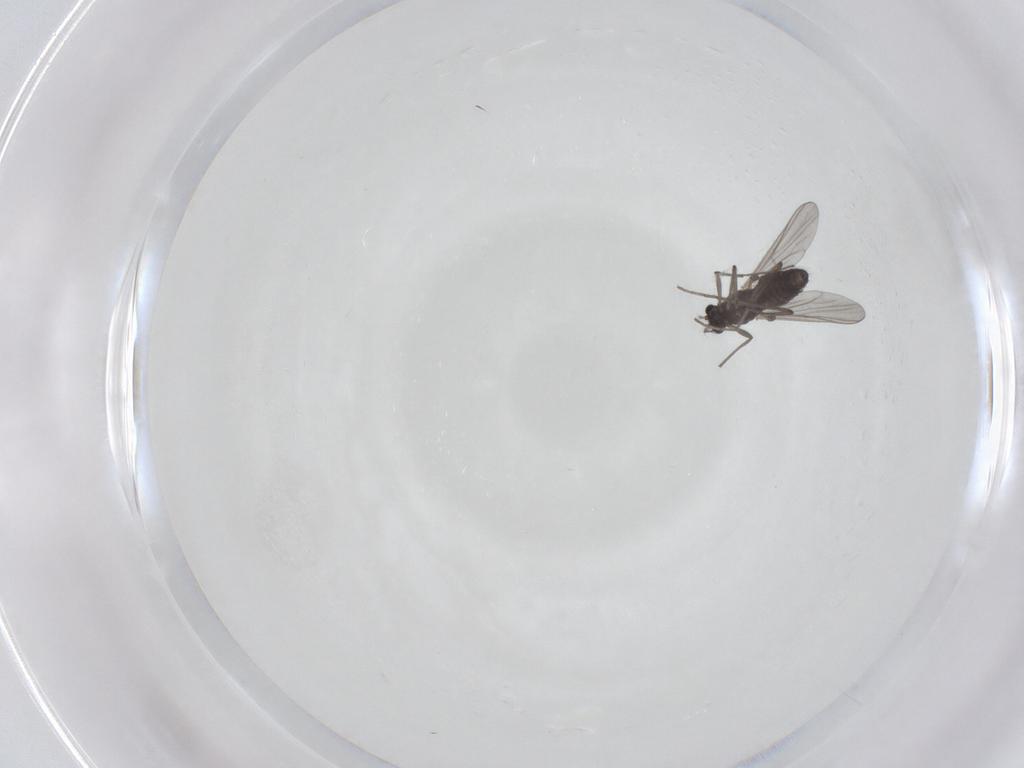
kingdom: Animalia
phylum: Arthropoda
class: Insecta
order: Diptera
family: Chironomidae
